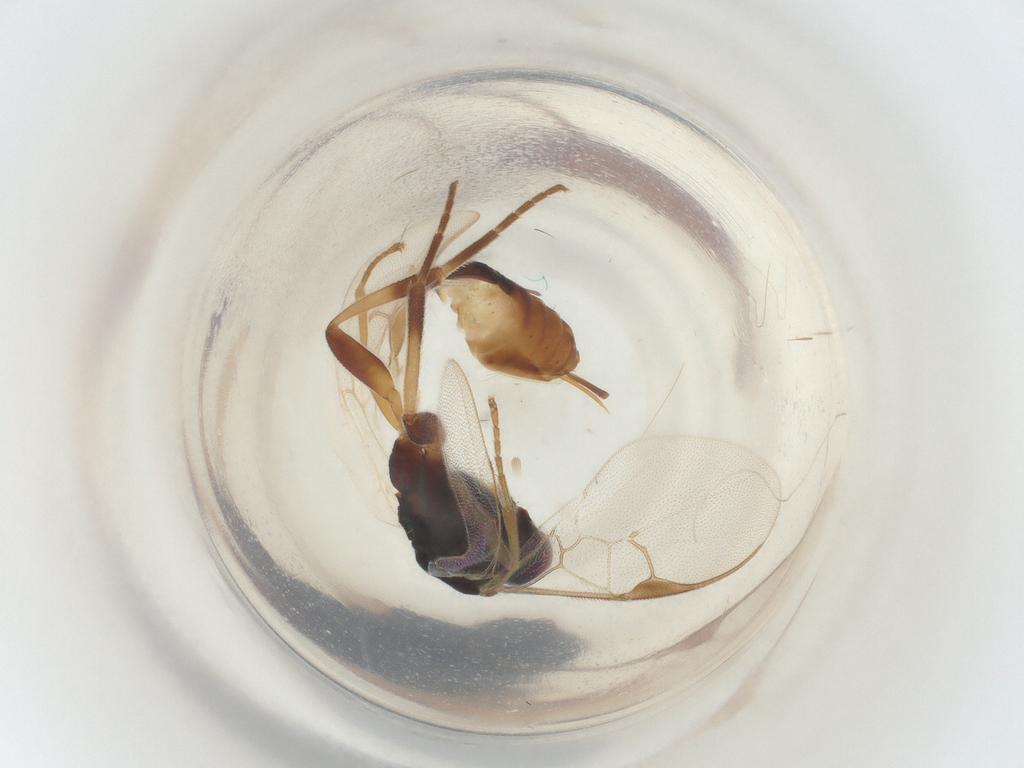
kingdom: Animalia
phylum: Arthropoda
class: Insecta
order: Hymenoptera
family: Braconidae
